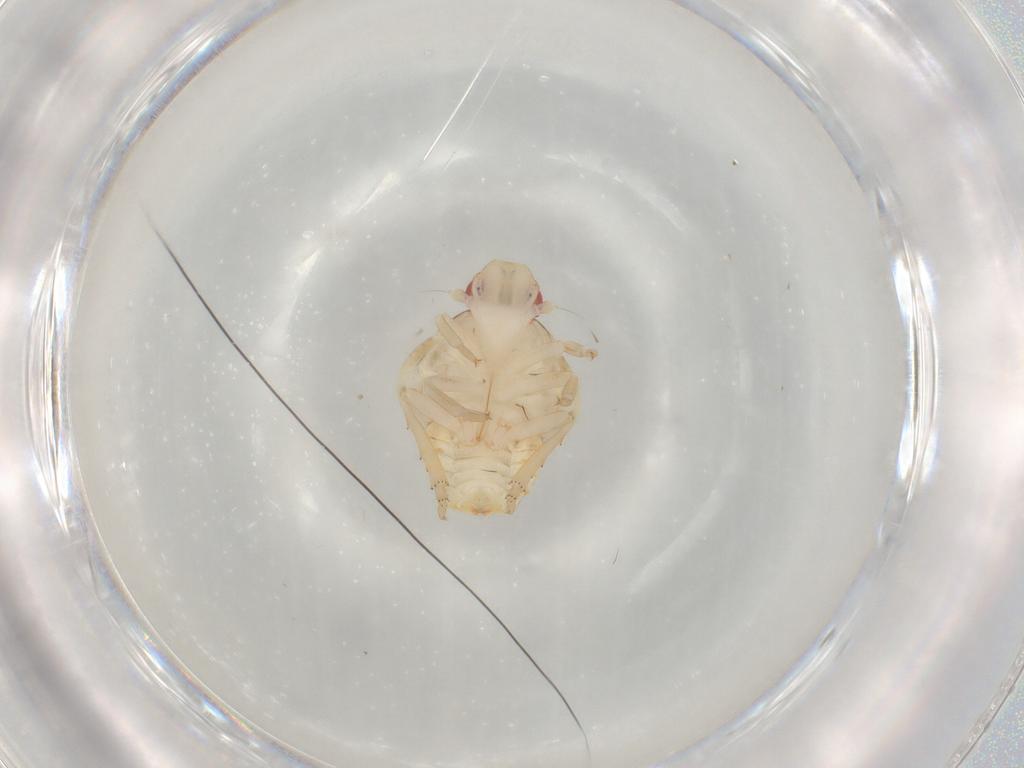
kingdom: Animalia
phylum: Arthropoda
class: Insecta
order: Hemiptera
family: Flatidae
